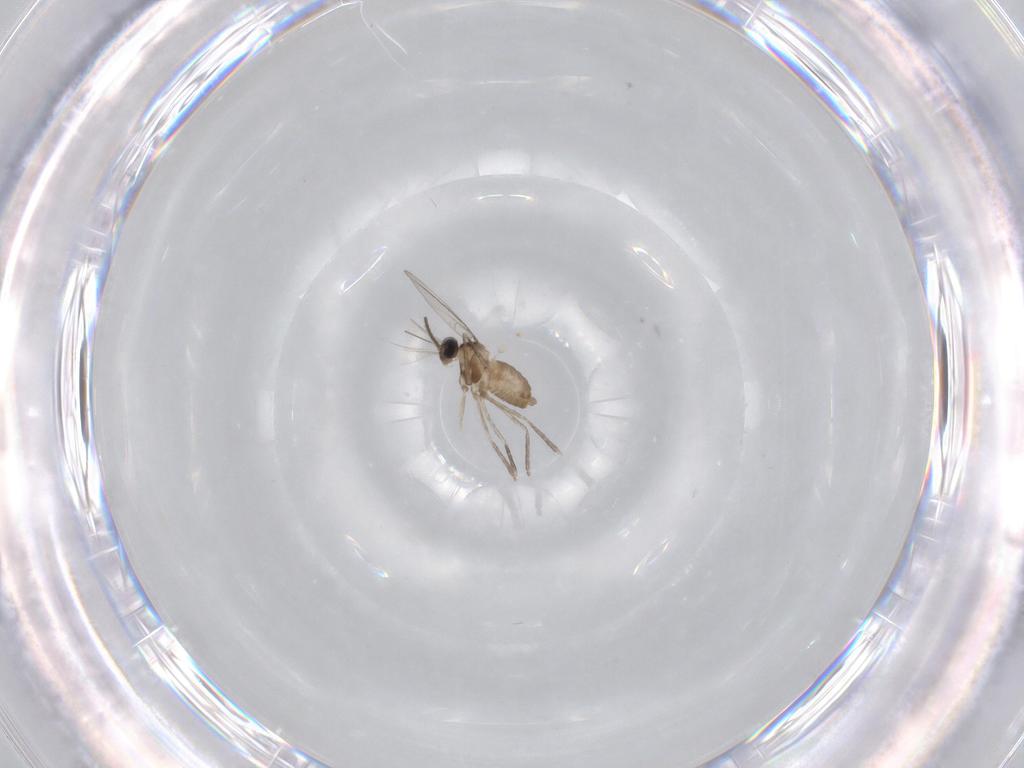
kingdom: Animalia
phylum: Arthropoda
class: Insecta
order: Diptera
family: Cecidomyiidae
